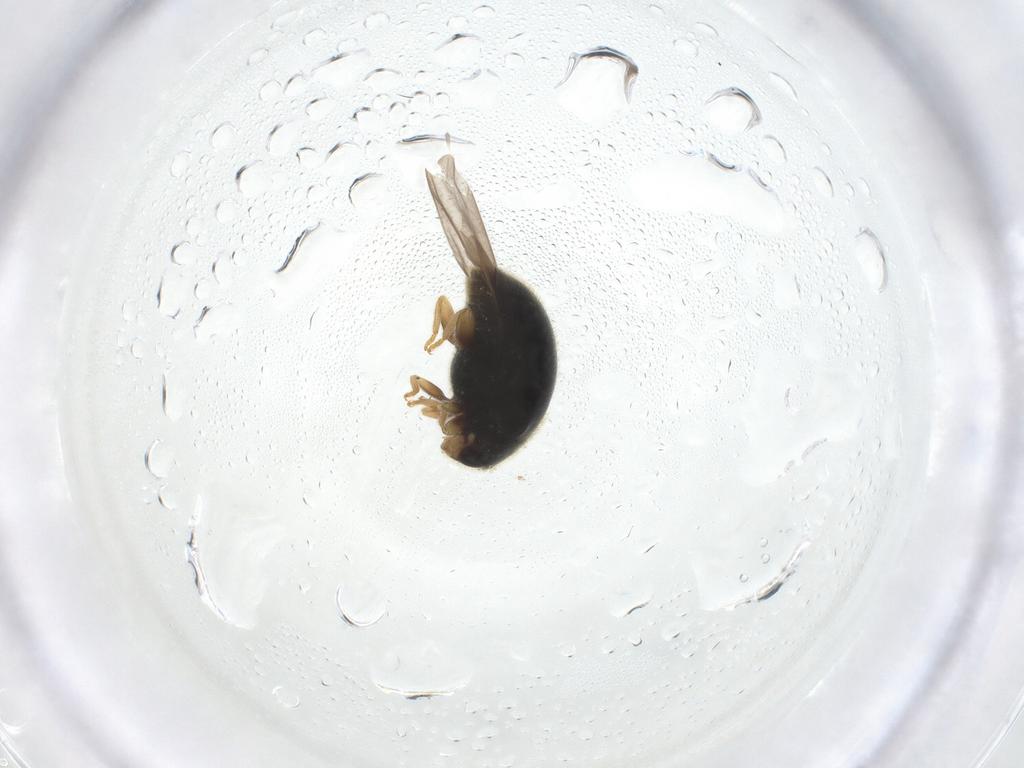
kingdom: Animalia
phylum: Arthropoda
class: Insecta
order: Coleoptera
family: Coccinellidae
